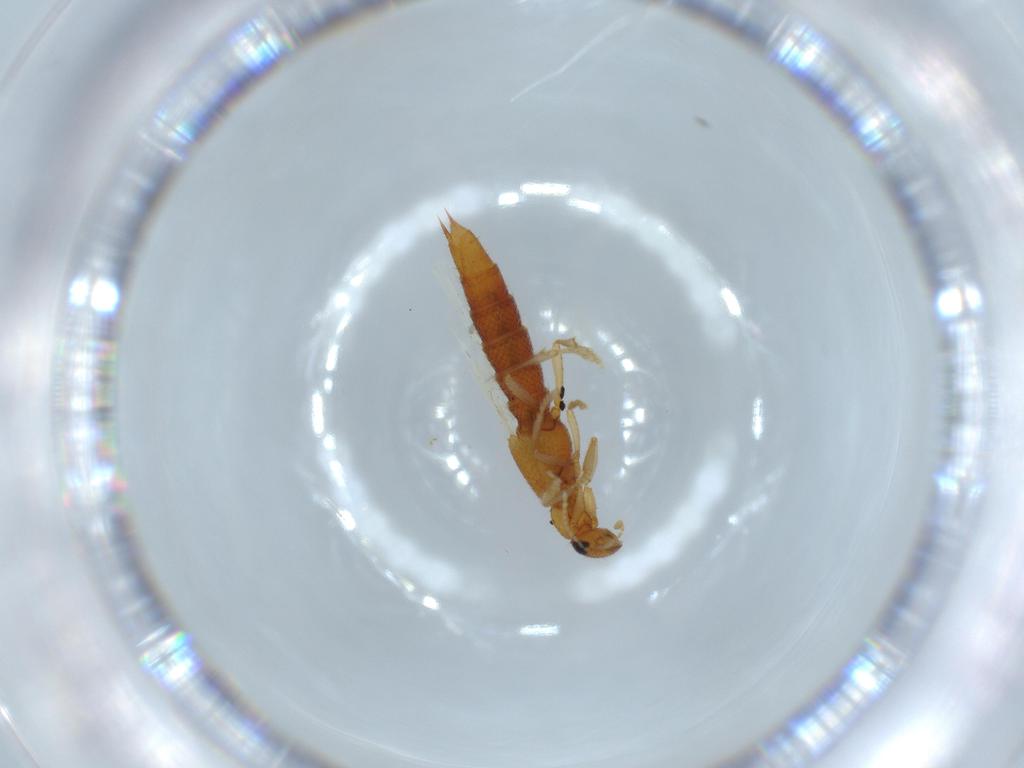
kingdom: Animalia
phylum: Arthropoda
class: Insecta
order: Coleoptera
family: Staphylinidae
